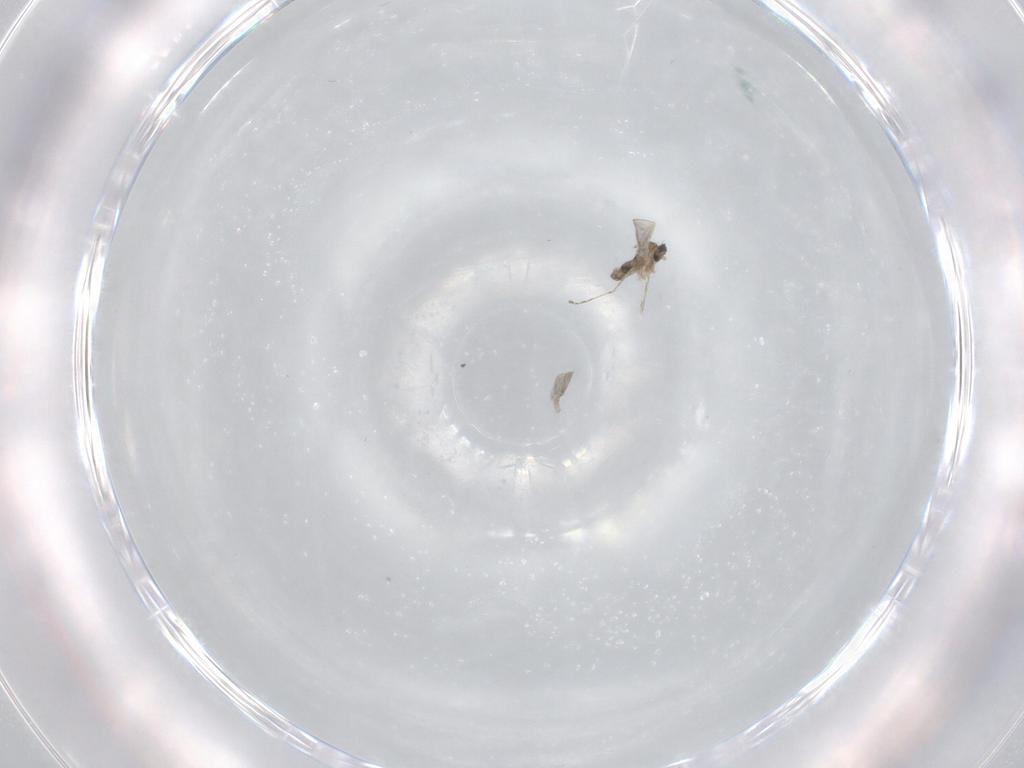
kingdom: Animalia
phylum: Arthropoda
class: Insecta
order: Diptera
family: Cecidomyiidae
